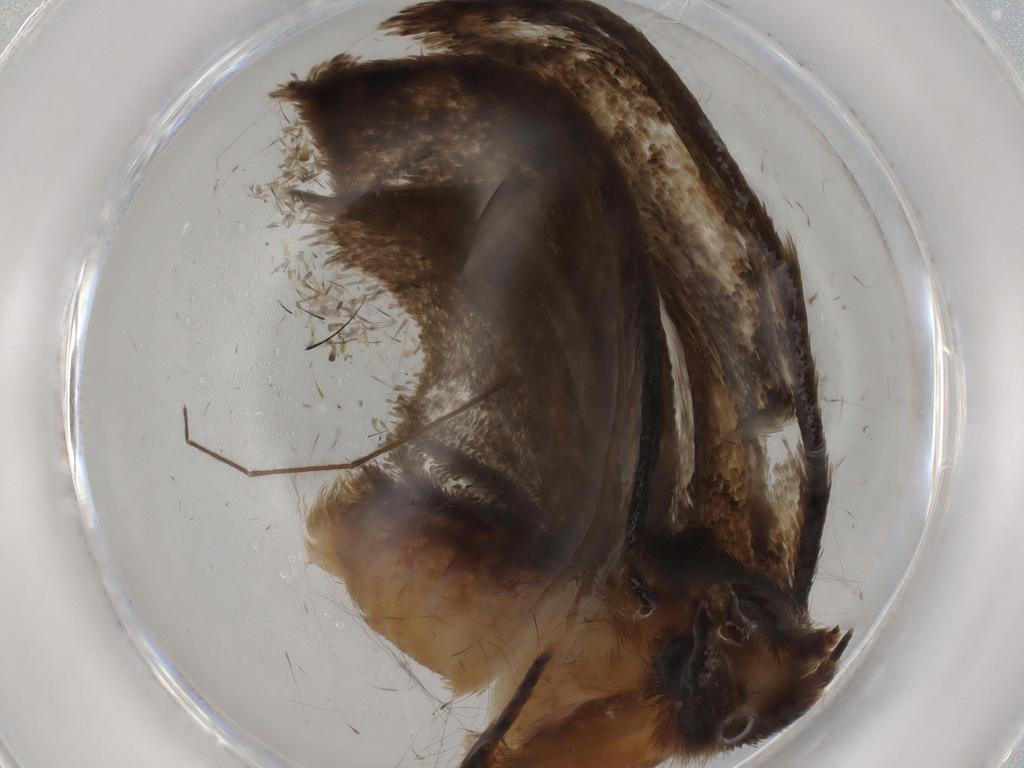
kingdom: Animalia
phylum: Arthropoda
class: Insecta
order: Lepidoptera
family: Tineidae
